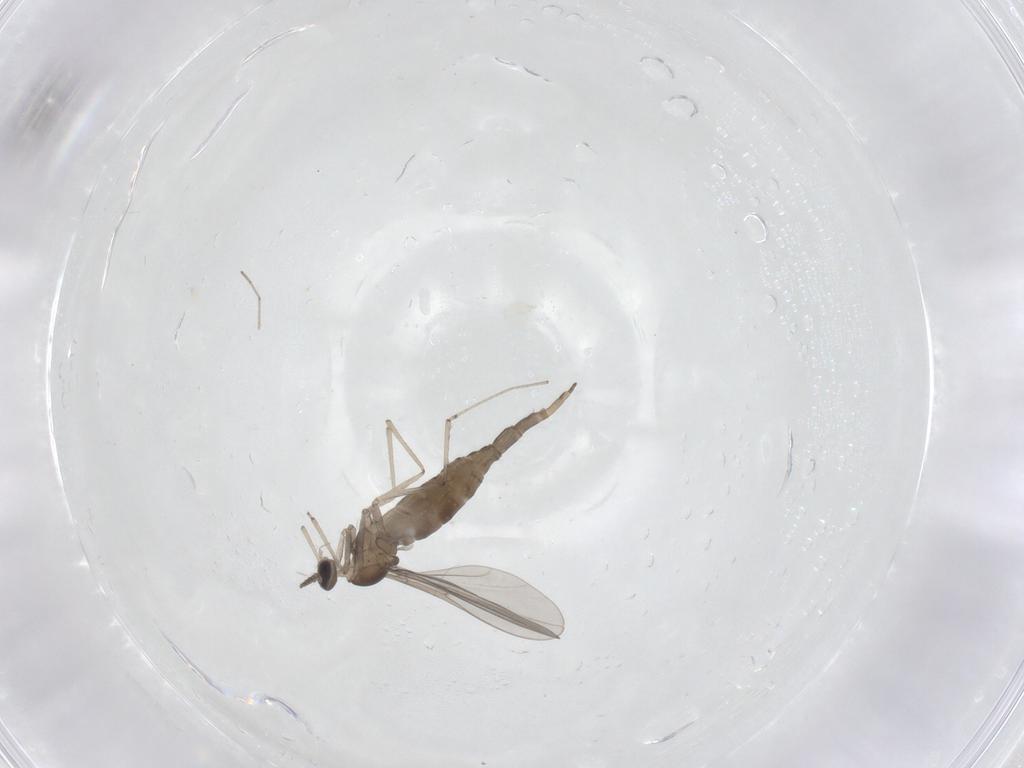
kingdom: Animalia
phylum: Arthropoda
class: Insecta
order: Diptera
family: Cecidomyiidae
